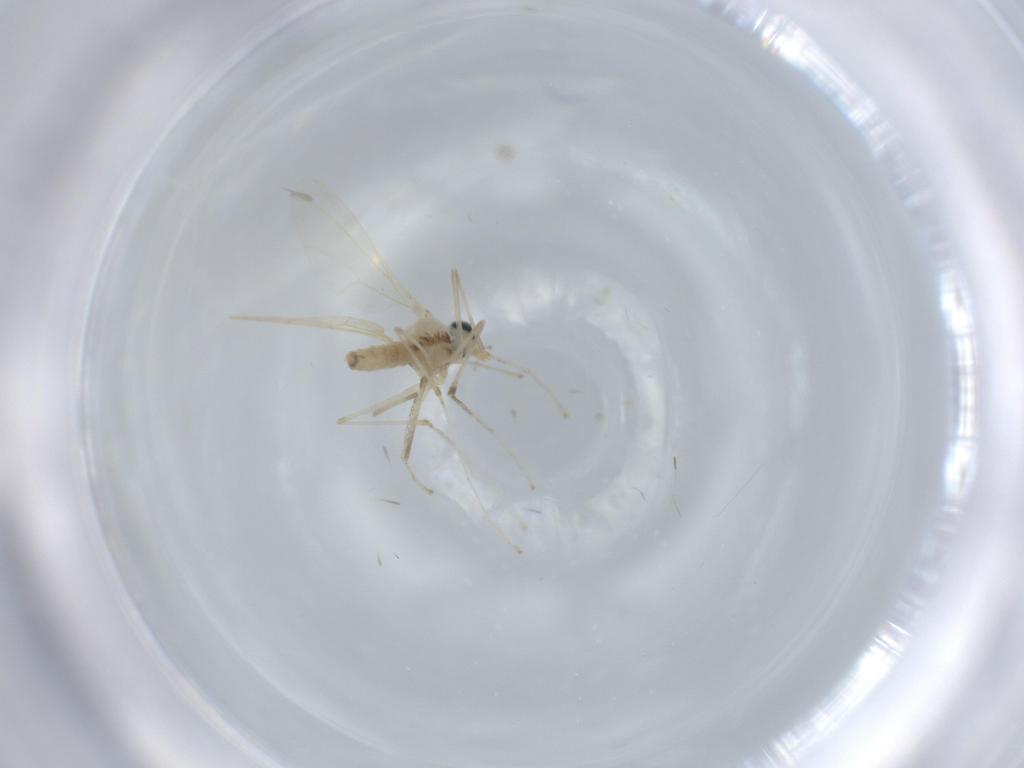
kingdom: Animalia
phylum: Arthropoda
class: Insecta
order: Diptera
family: Cecidomyiidae
